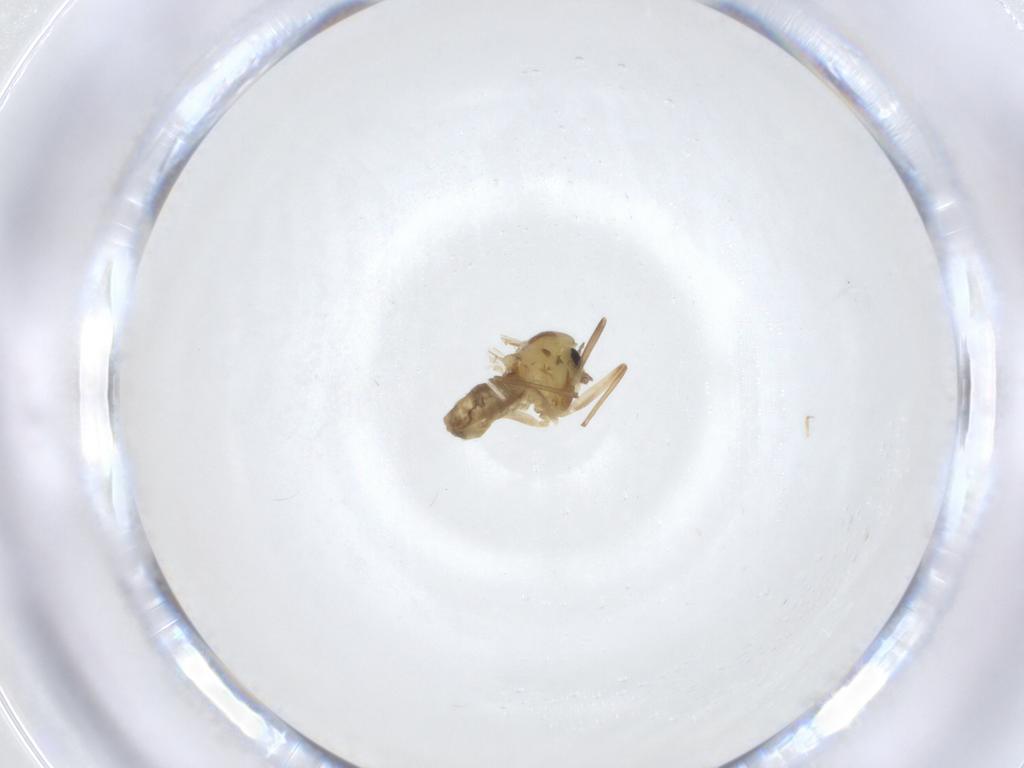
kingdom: Animalia
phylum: Arthropoda
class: Insecta
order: Diptera
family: Chironomidae
